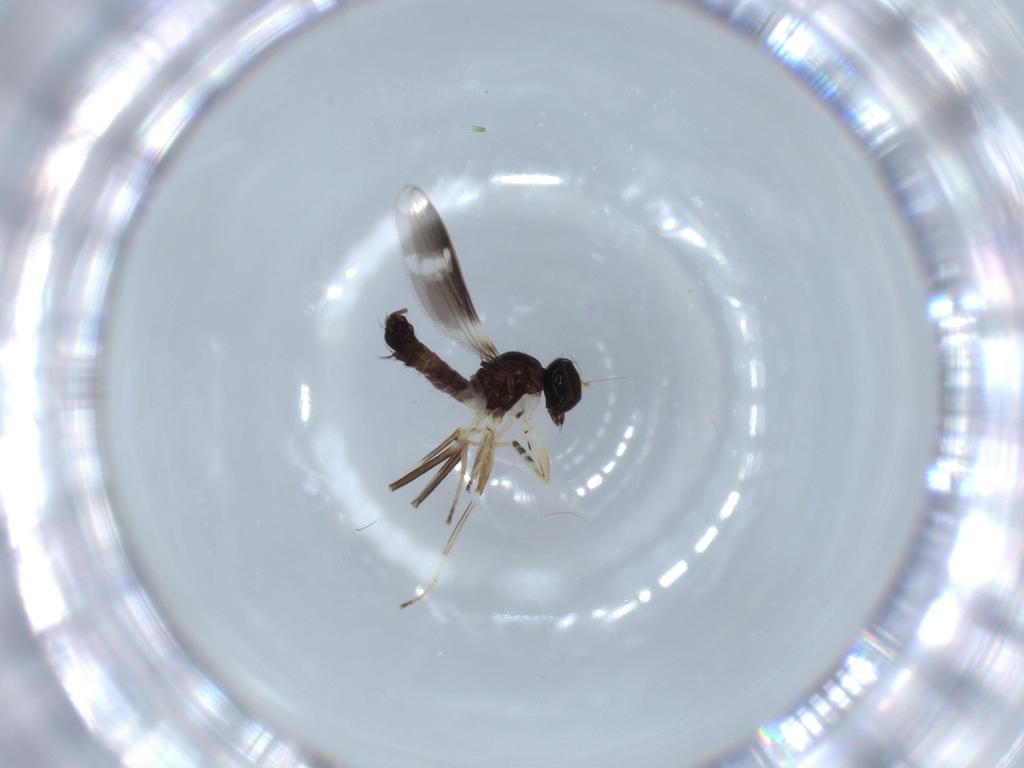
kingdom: Animalia
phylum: Arthropoda
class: Insecta
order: Diptera
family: Hybotidae
